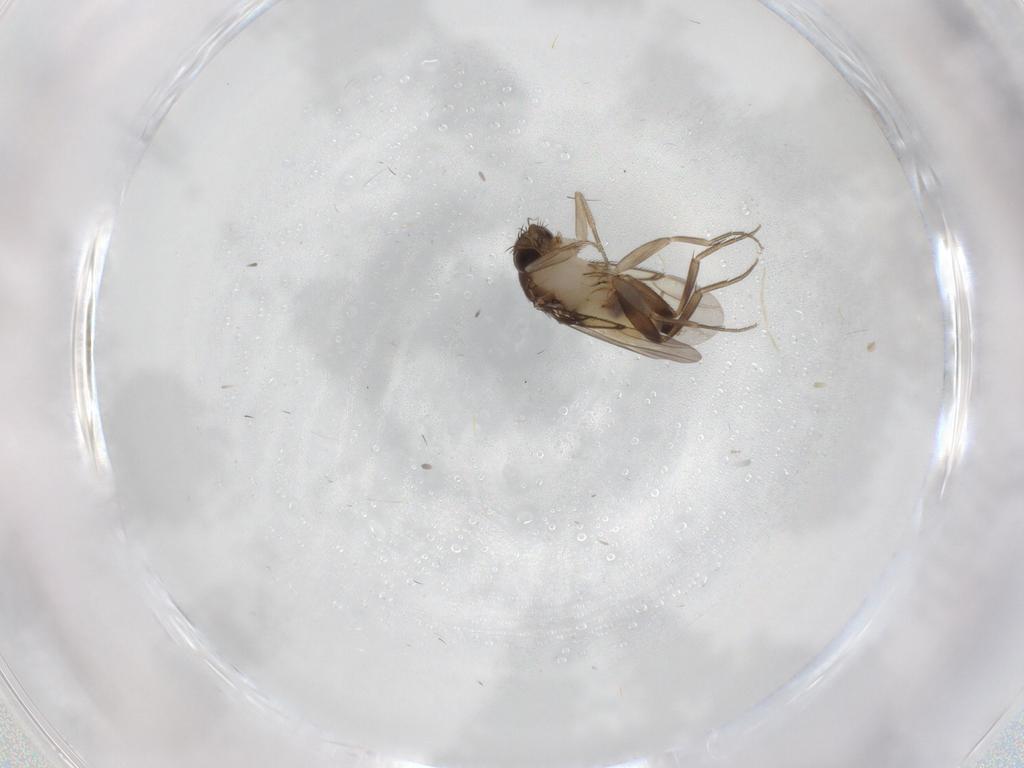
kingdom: Animalia
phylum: Arthropoda
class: Insecta
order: Diptera
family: Phoridae
